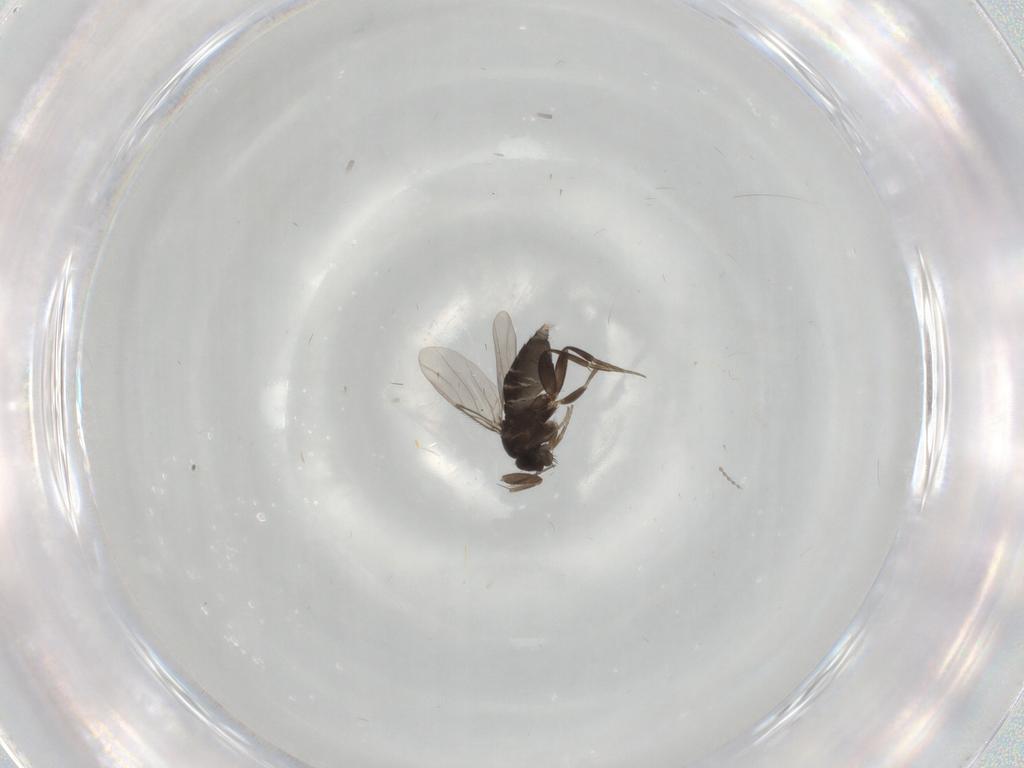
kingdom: Animalia
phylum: Arthropoda
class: Insecta
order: Diptera
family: Phoridae
